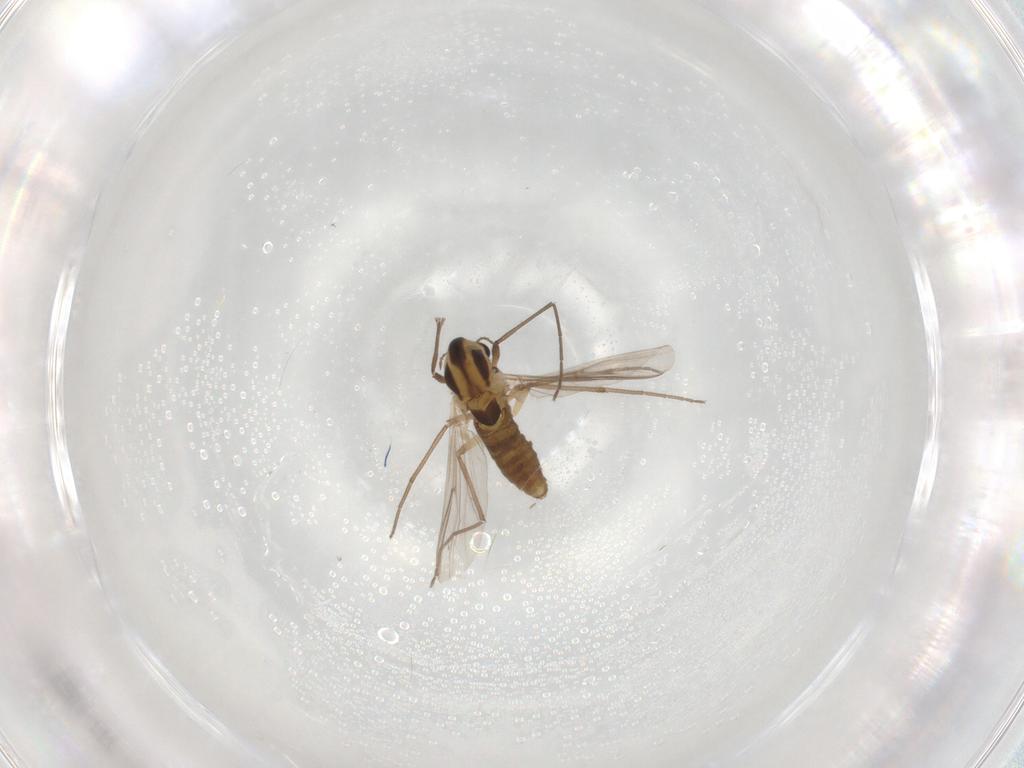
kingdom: Animalia
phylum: Arthropoda
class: Insecta
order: Diptera
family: Chironomidae
